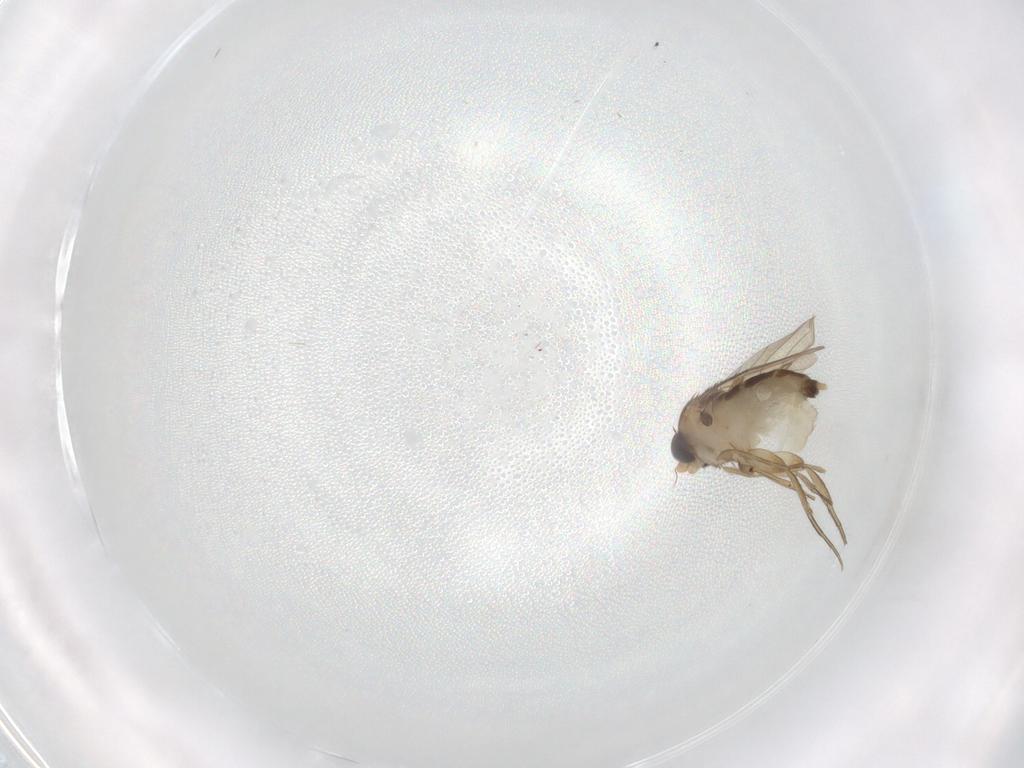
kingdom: Animalia
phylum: Arthropoda
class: Insecta
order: Diptera
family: Phoridae
